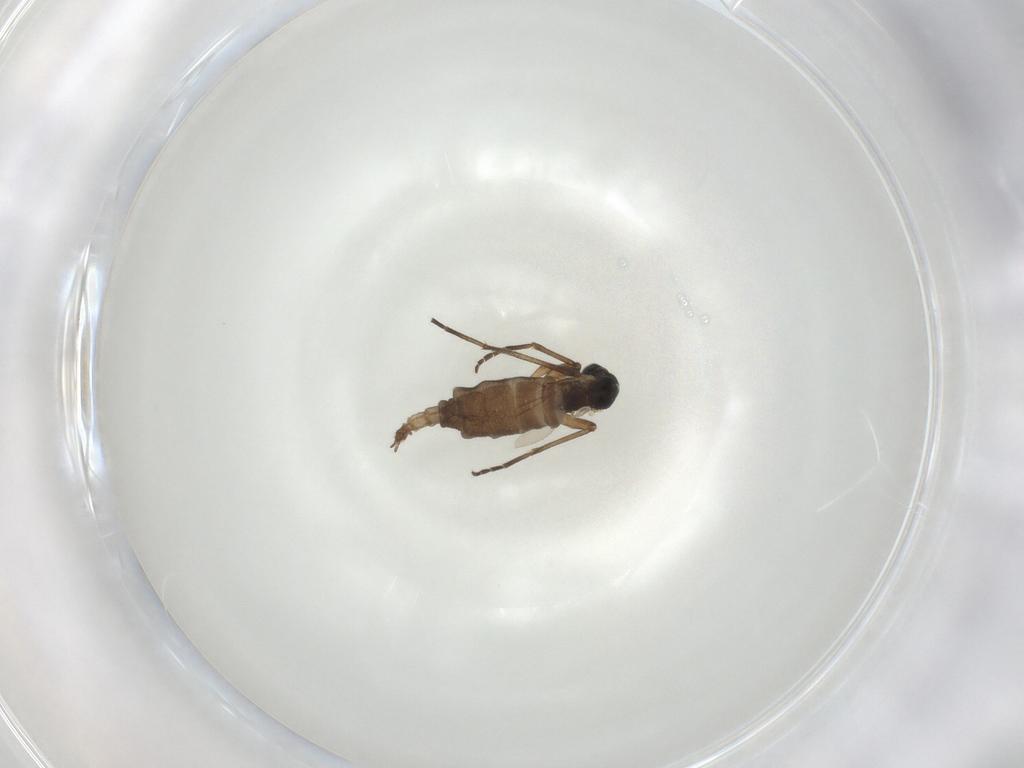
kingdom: Animalia
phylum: Arthropoda
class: Insecta
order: Diptera
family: Sciaridae
